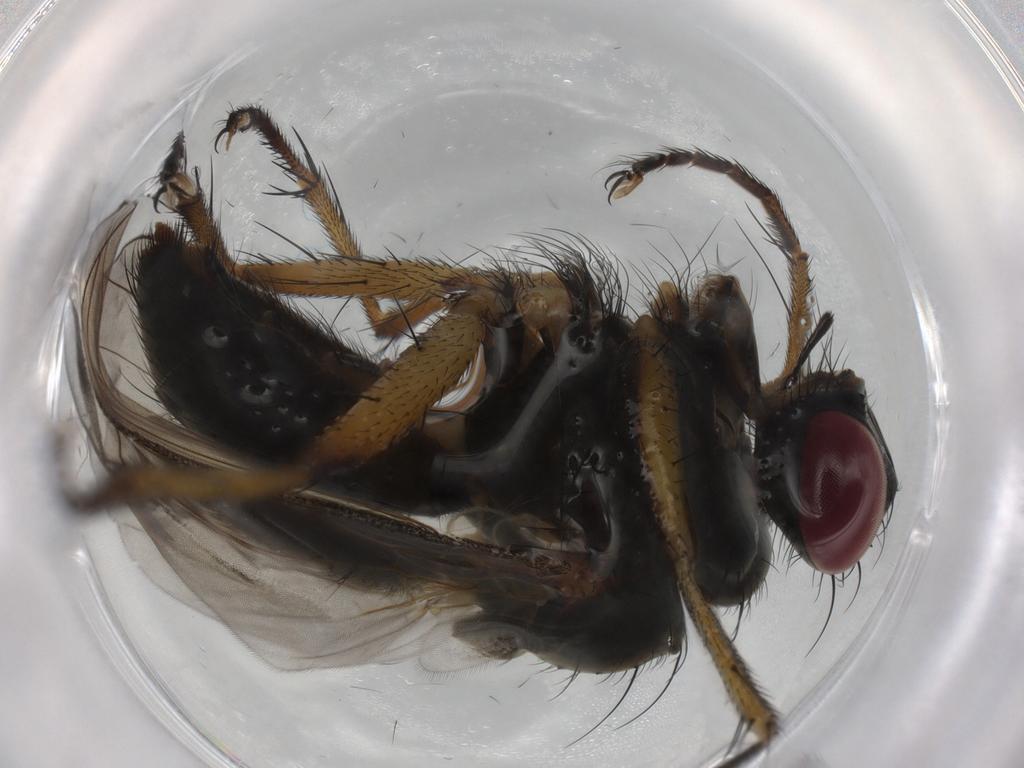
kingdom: Animalia
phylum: Arthropoda
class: Insecta
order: Diptera
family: Muscidae
